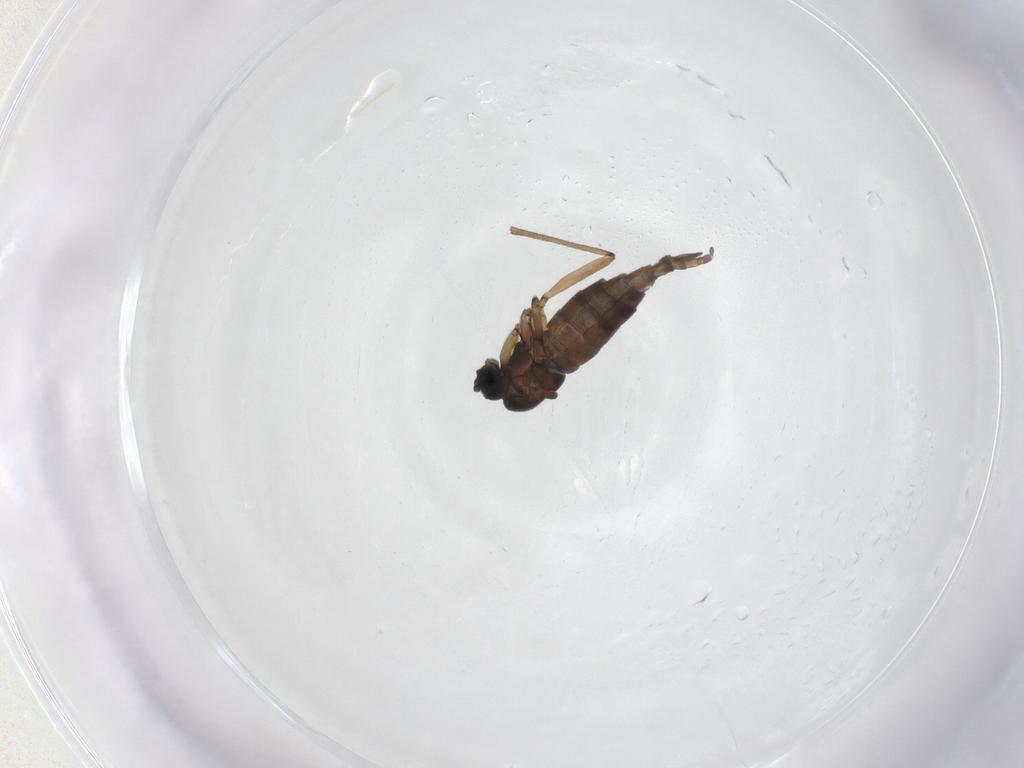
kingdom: Animalia
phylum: Arthropoda
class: Insecta
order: Diptera
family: Sciaridae
